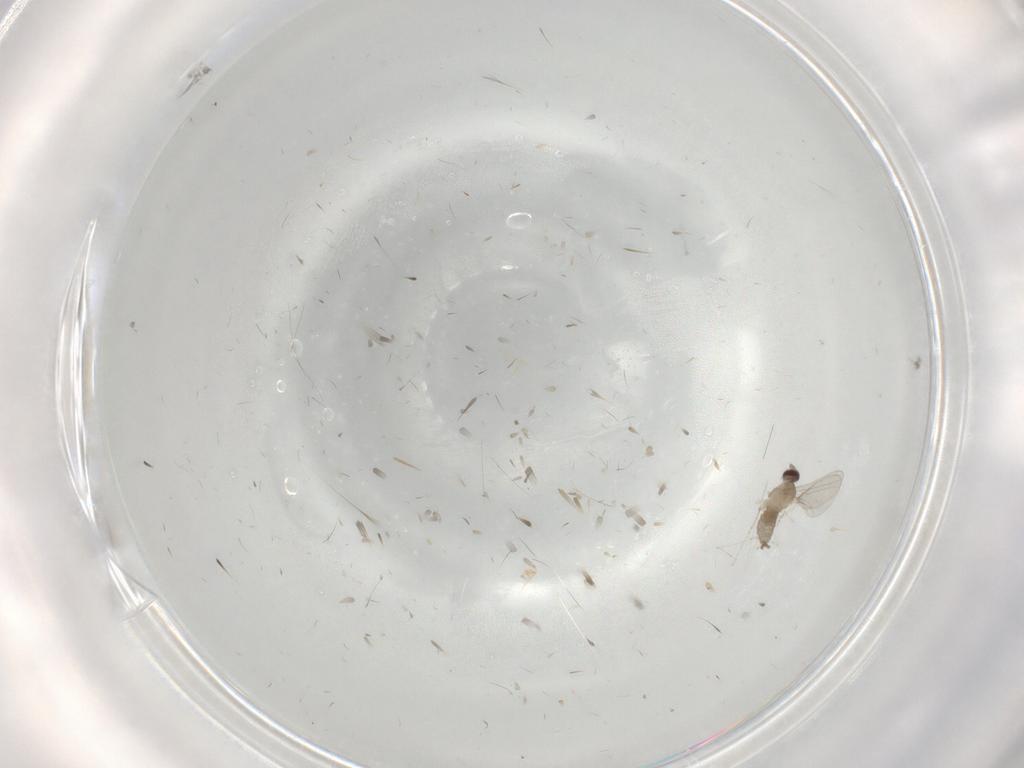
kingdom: Animalia
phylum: Arthropoda
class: Insecta
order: Diptera
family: Cecidomyiidae
